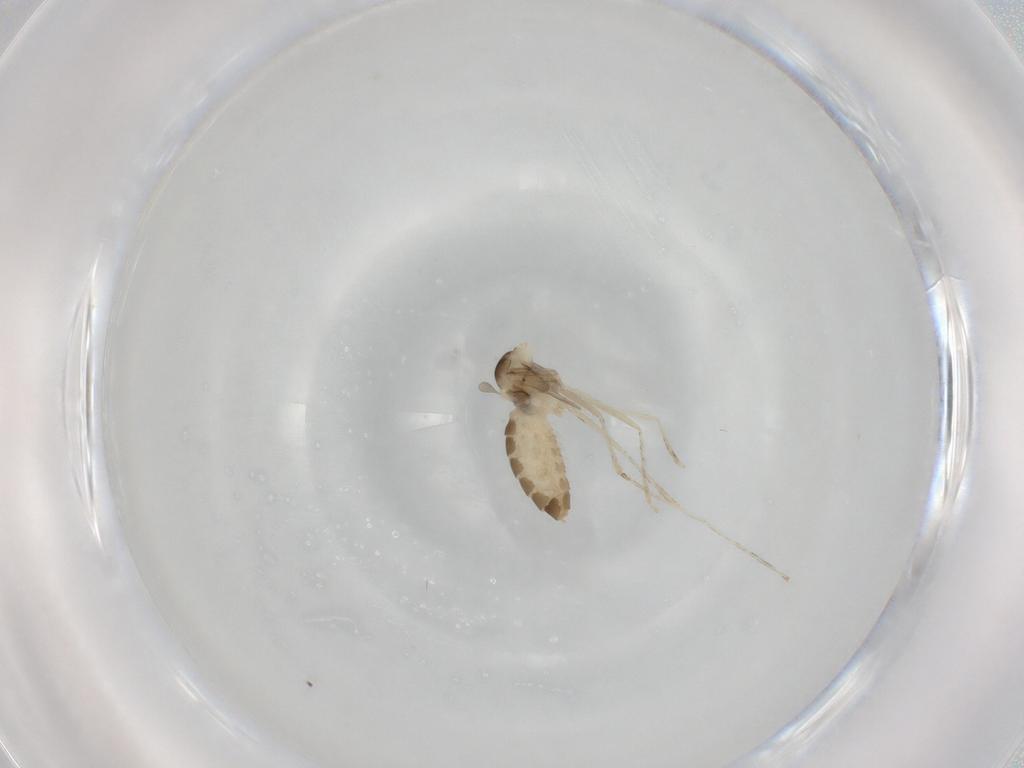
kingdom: Animalia
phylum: Arthropoda
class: Insecta
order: Diptera
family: Cecidomyiidae
